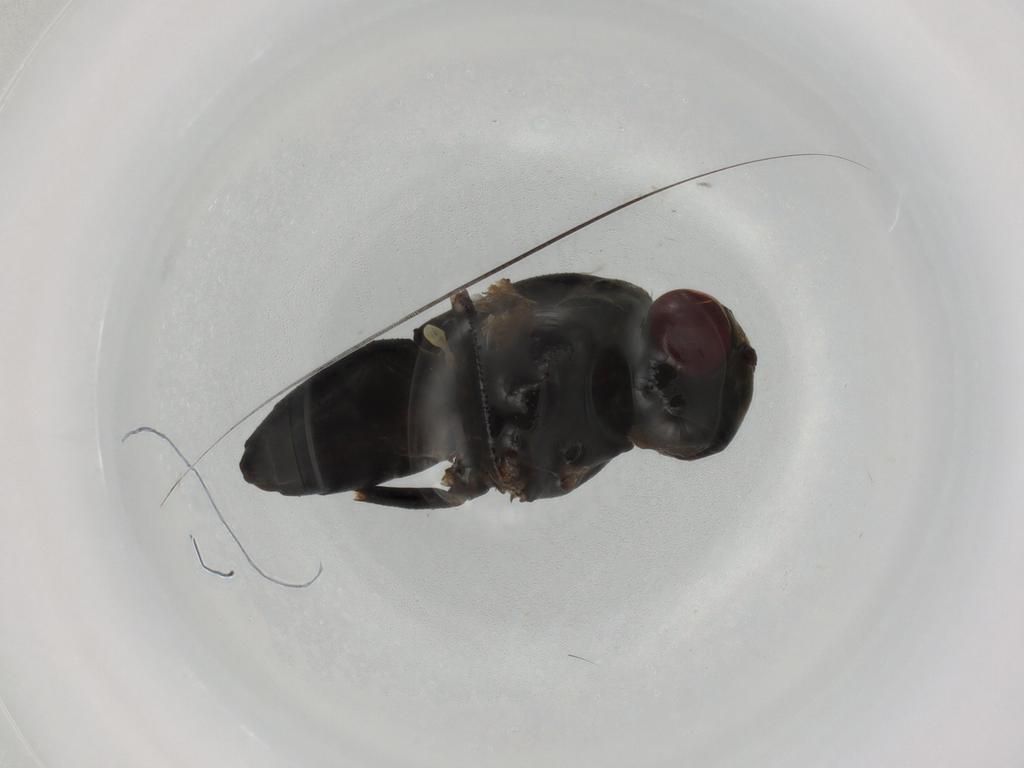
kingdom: Animalia
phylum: Arthropoda
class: Insecta
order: Diptera
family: Ephydridae
